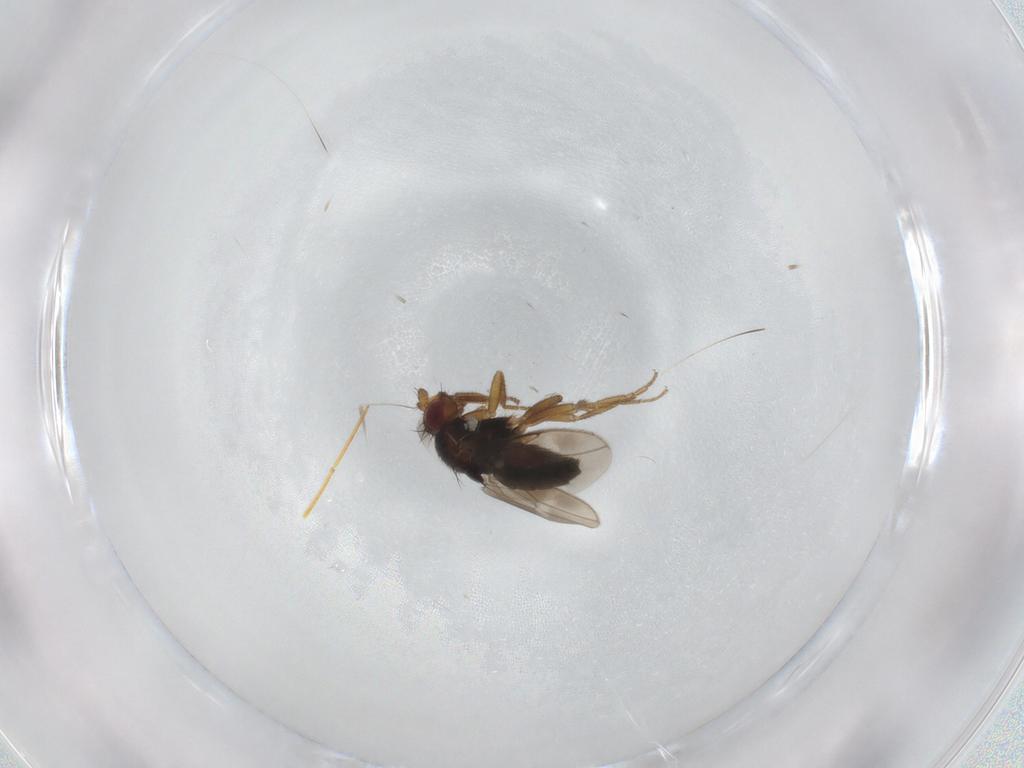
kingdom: Animalia
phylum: Arthropoda
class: Insecta
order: Diptera
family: Sphaeroceridae
